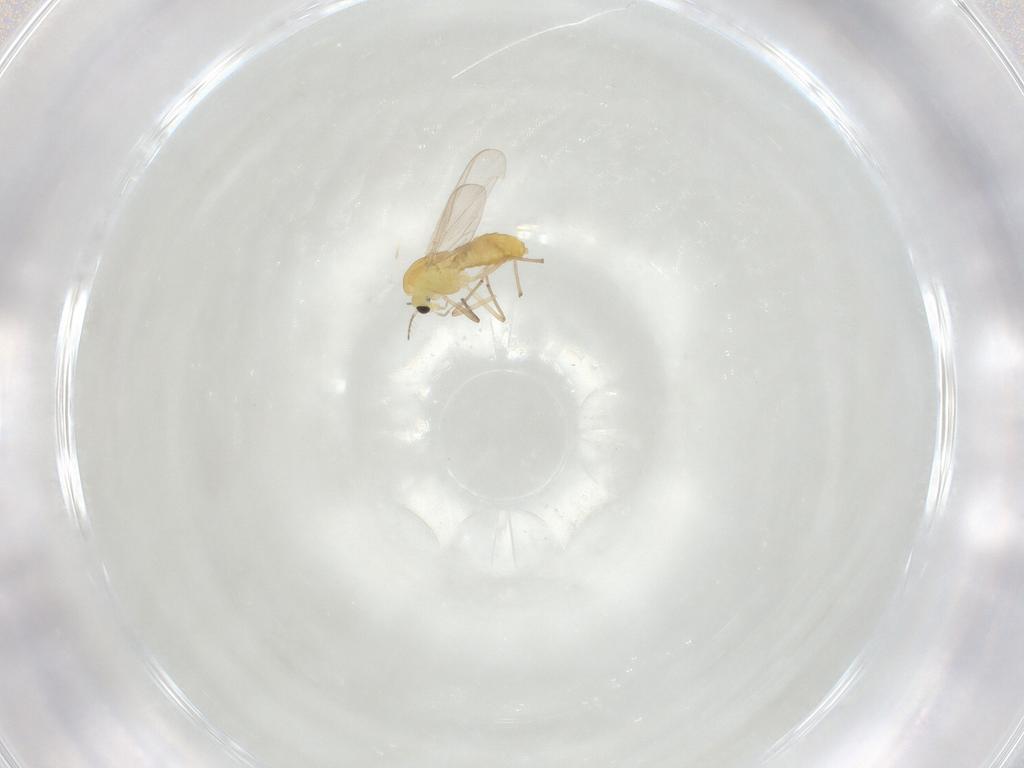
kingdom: Animalia
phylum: Arthropoda
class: Insecta
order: Diptera
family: Chironomidae
